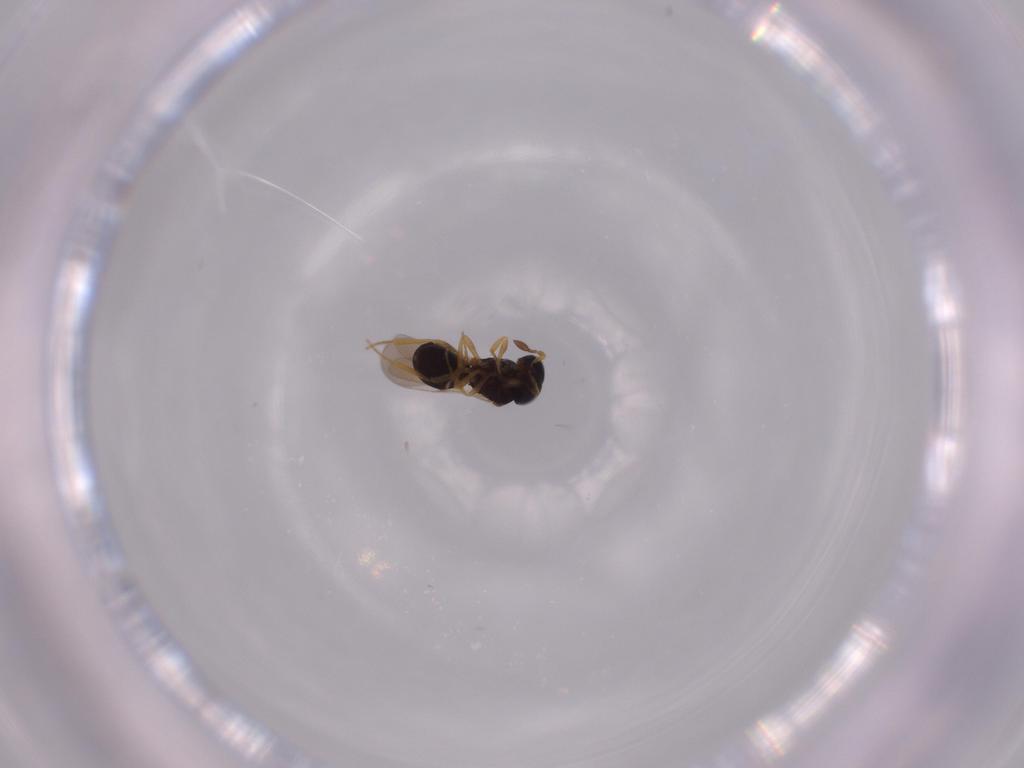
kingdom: Animalia
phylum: Arthropoda
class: Insecta
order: Hymenoptera
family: Scelionidae
